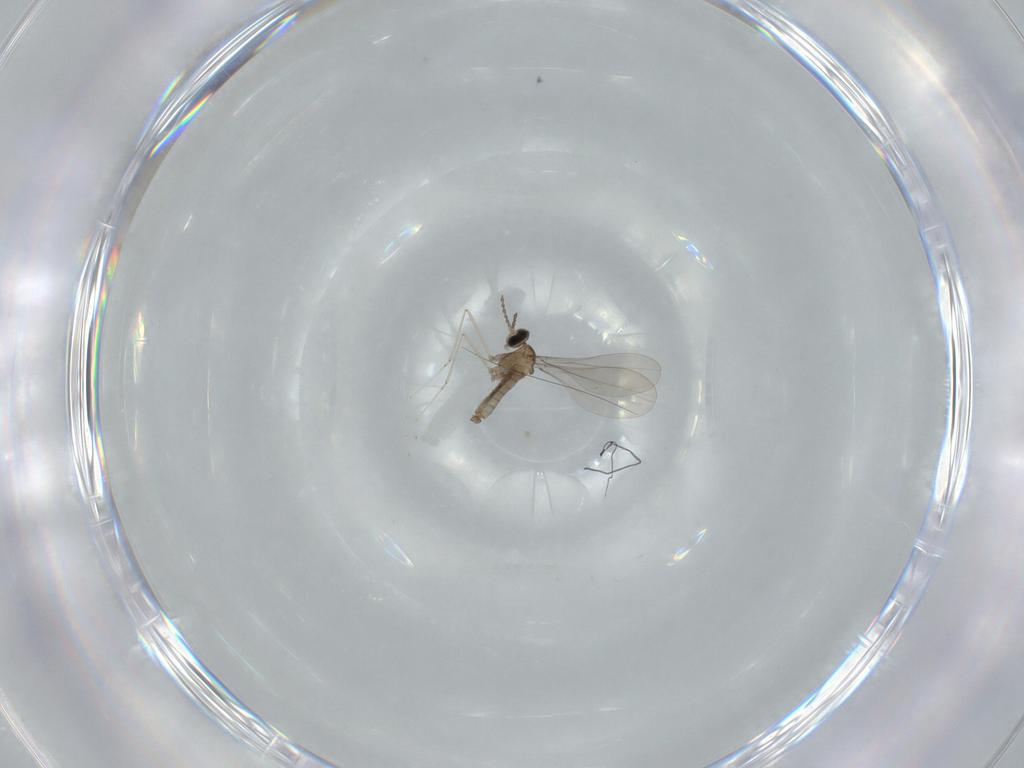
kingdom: Animalia
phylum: Arthropoda
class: Insecta
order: Diptera
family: Cecidomyiidae
